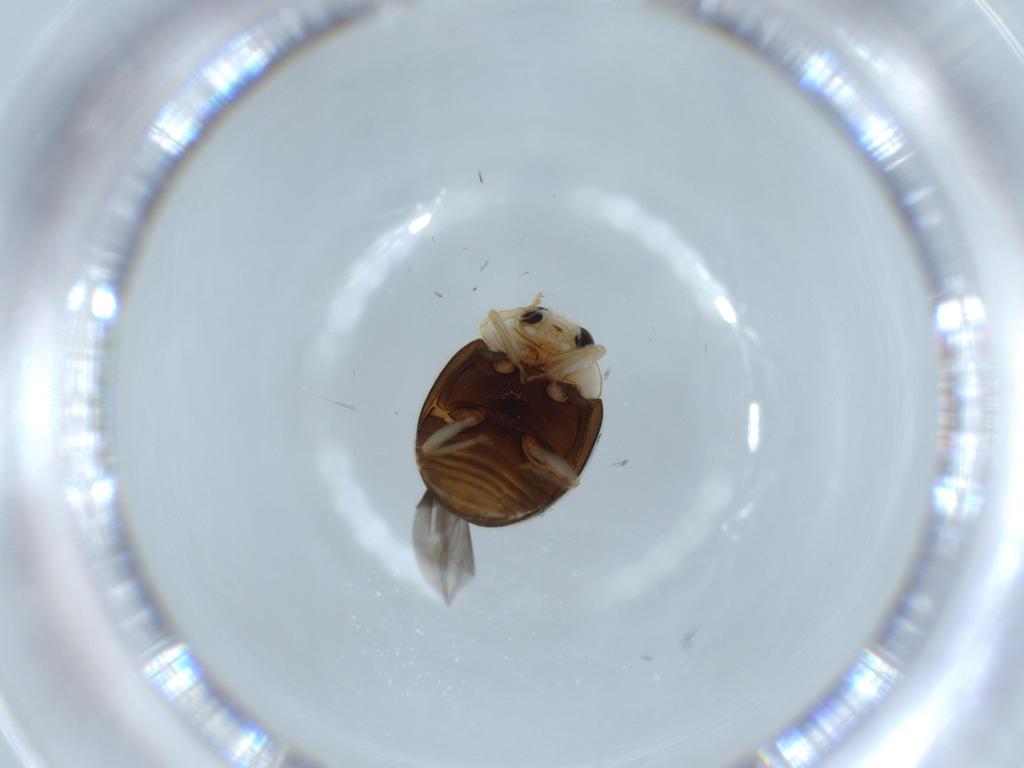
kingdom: Animalia
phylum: Arthropoda
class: Insecta
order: Coleoptera
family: Coccinellidae
